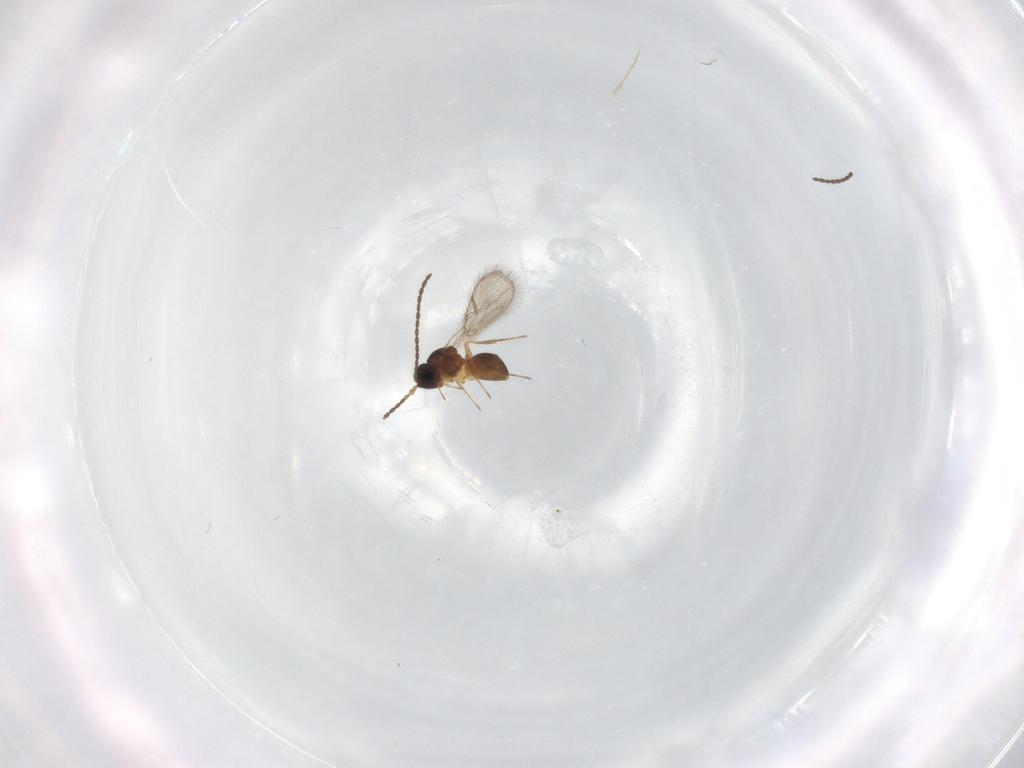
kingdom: Animalia
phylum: Arthropoda
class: Insecta
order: Hymenoptera
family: Figitidae
